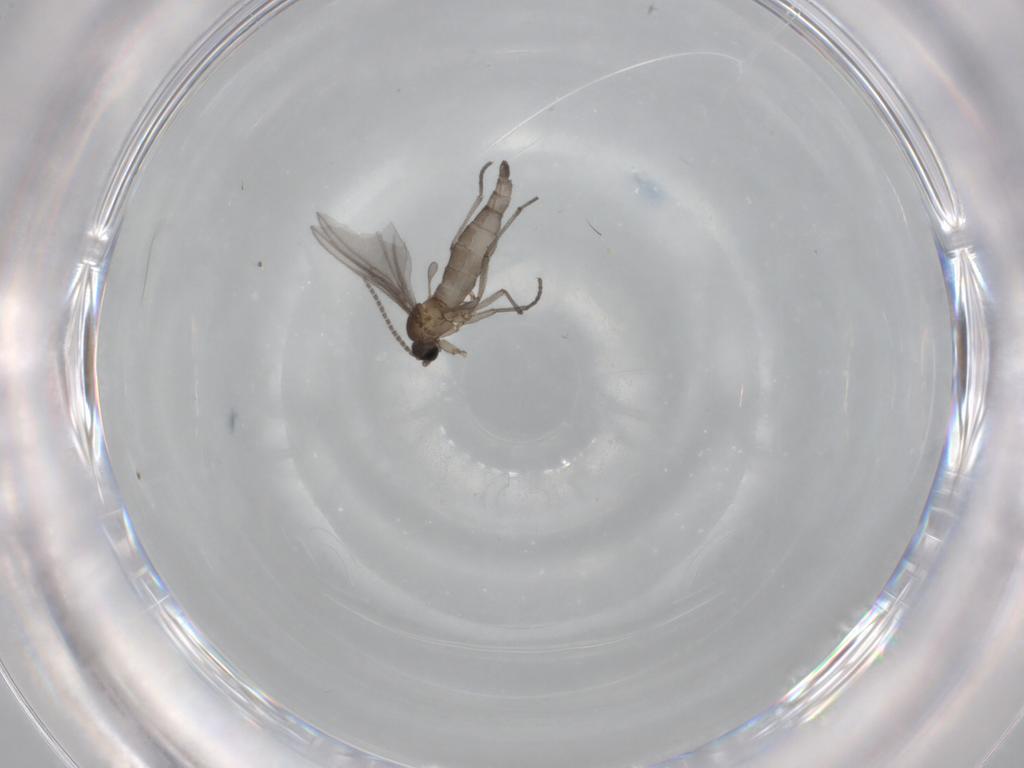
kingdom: Animalia
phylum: Arthropoda
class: Insecta
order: Diptera
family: Sciaridae
